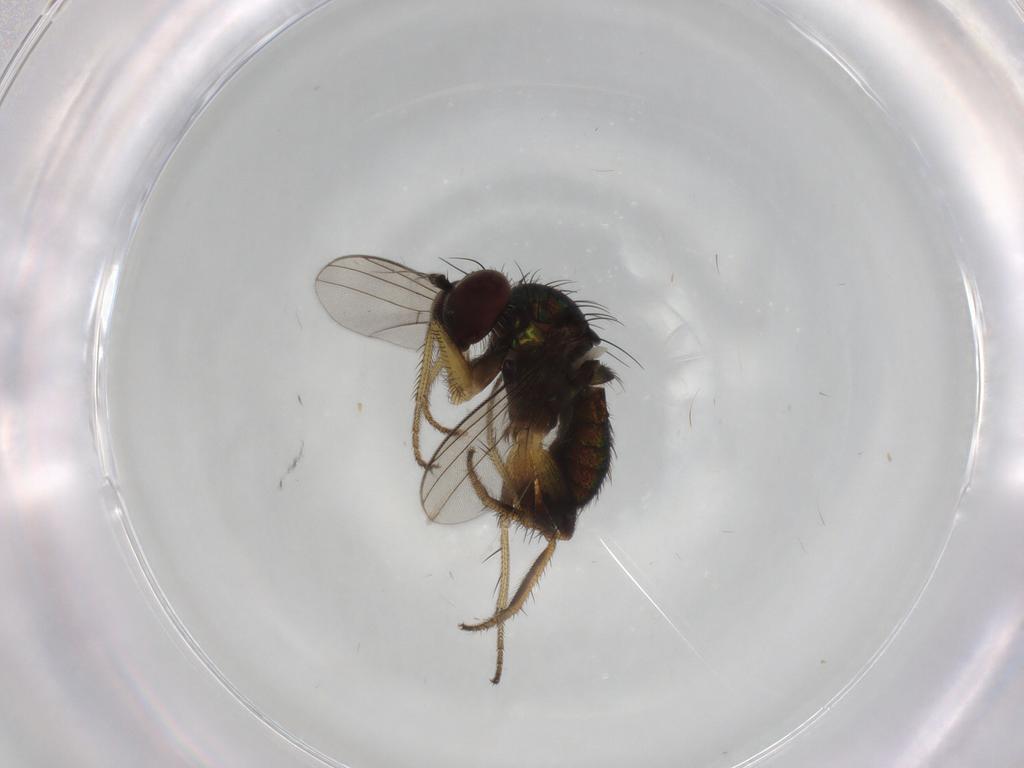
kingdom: Animalia
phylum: Arthropoda
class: Insecta
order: Diptera
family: Dolichopodidae
